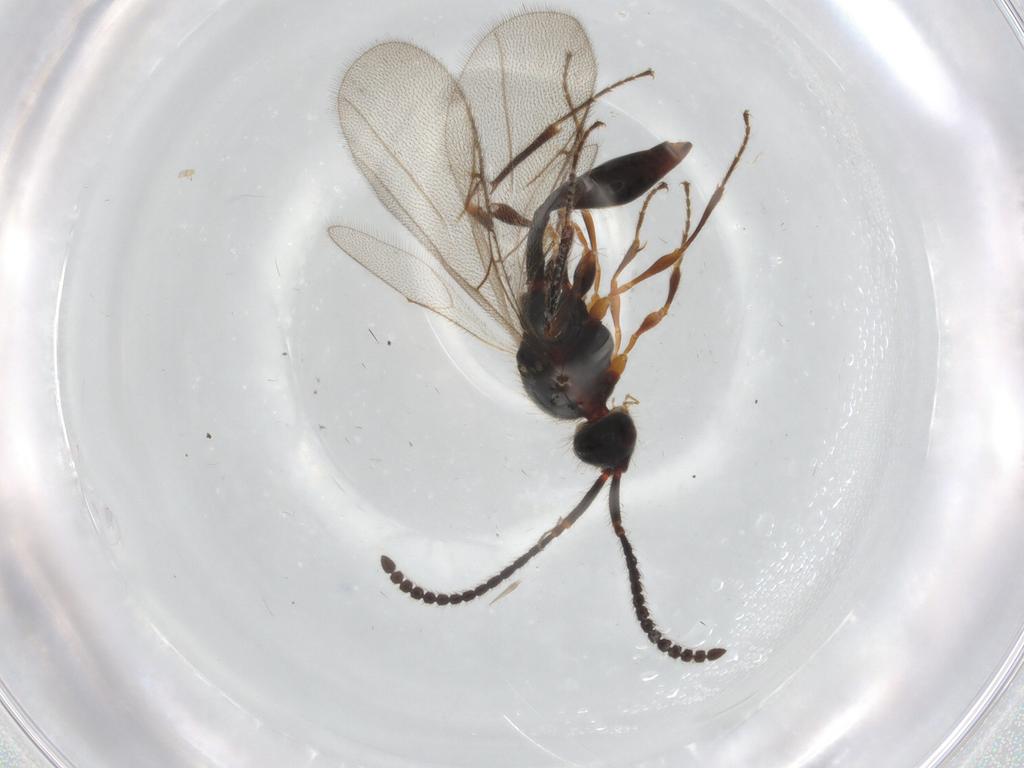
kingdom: Animalia
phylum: Arthropoda
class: Insecta
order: Hymenoptera
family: Diapriidae
